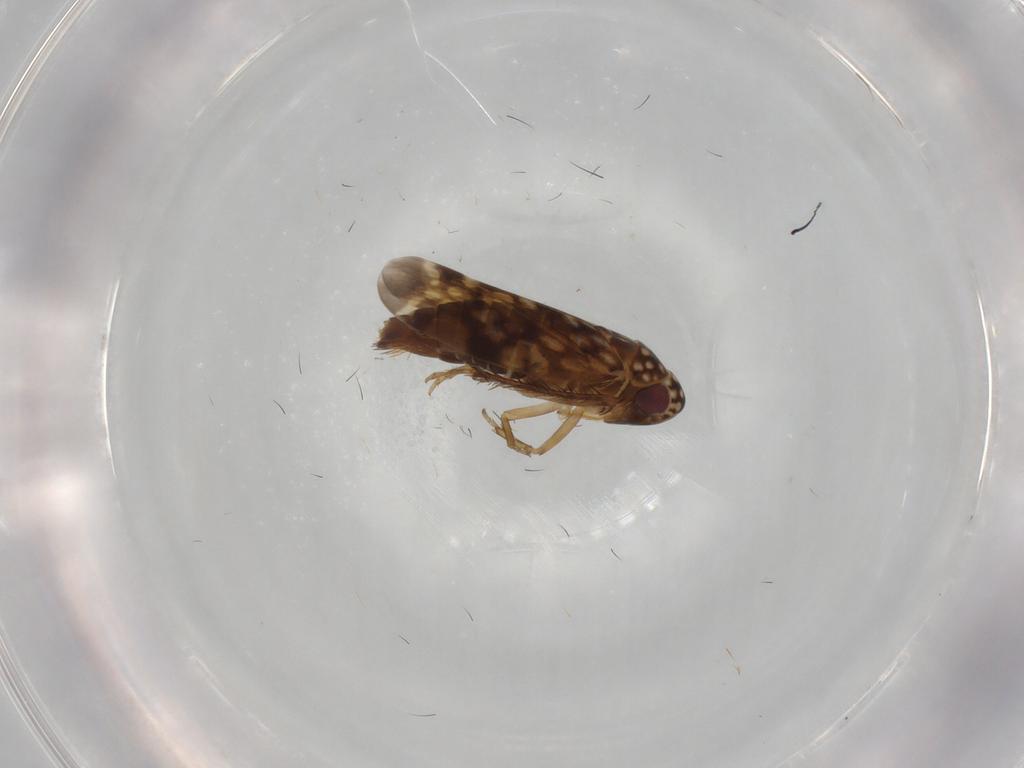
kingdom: Animalia
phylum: Arthropoda
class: Insecta
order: Hemiptera
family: Cicadellidae
